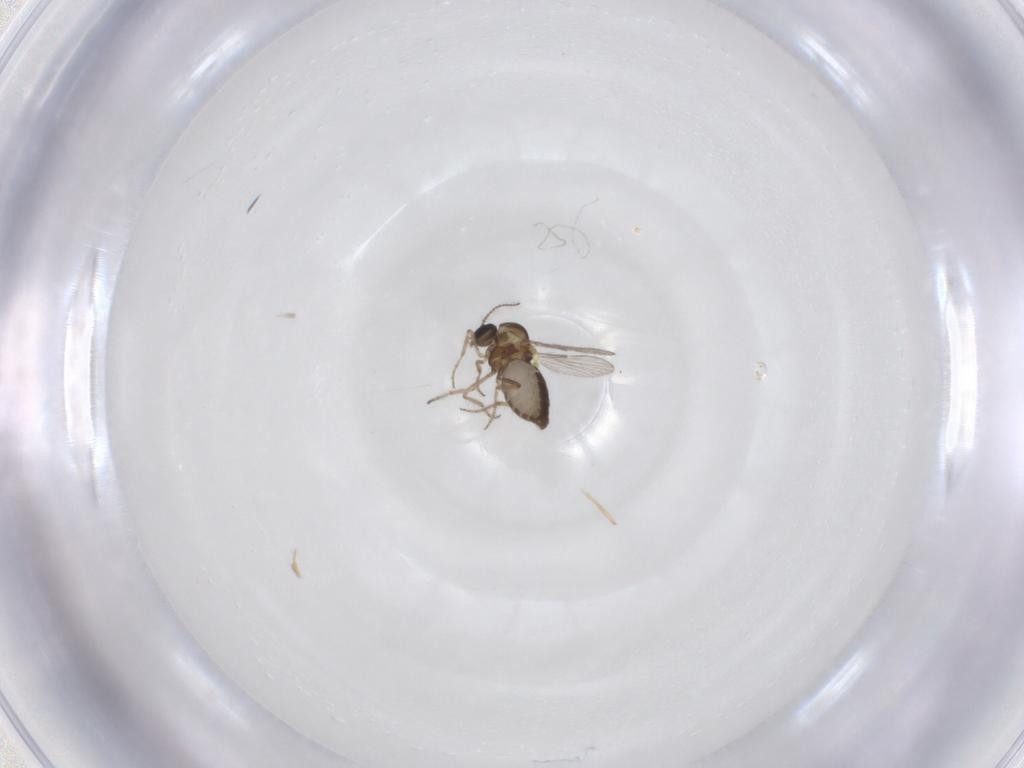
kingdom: Animalia
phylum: Arthropoda
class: Insecta
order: Diptera
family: Ceratopogonidae
